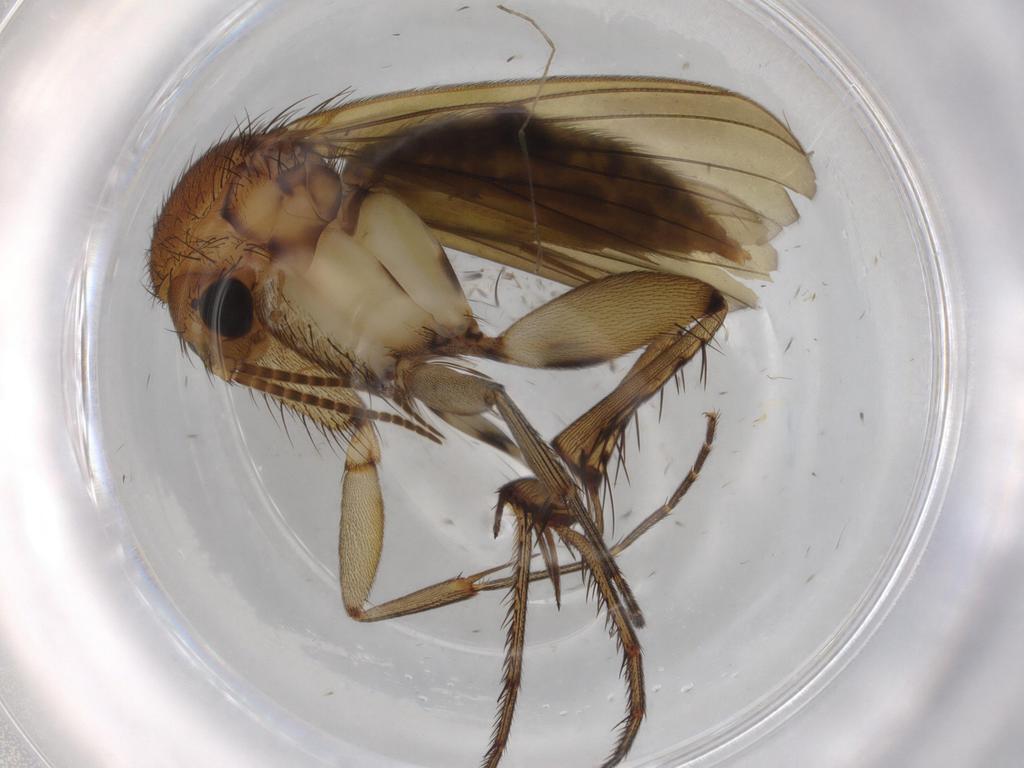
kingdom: Animalia
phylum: Arthropoda
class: Insecta
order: Diptera
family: Cecidomyiidae
